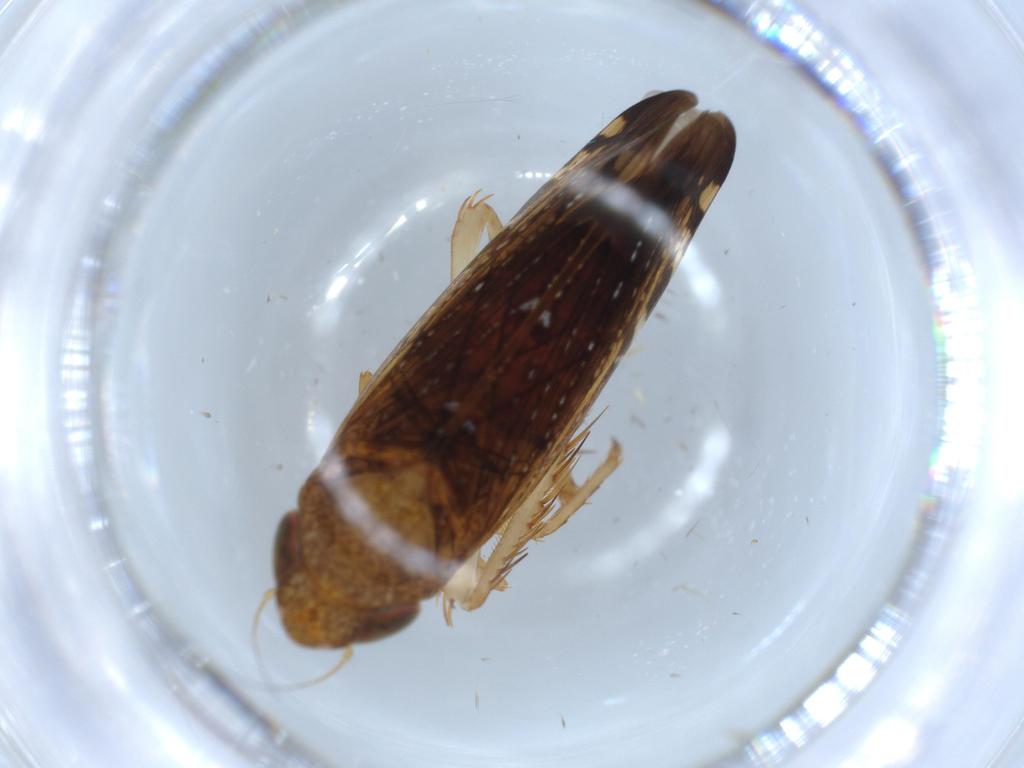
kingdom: Animalia
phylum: Arthropoda
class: Insecta
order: Hemiptera
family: Cicadellidae
